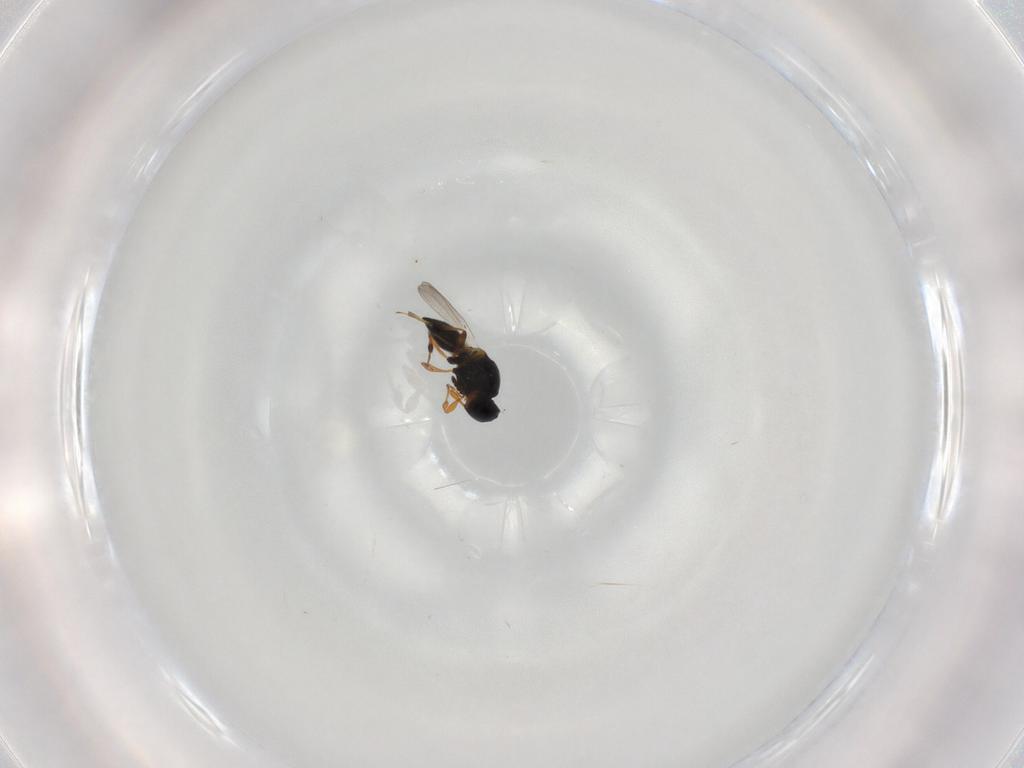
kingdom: Animalia
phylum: Arthropoda
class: Insecta
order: Hymenoptera
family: Platygastridae
